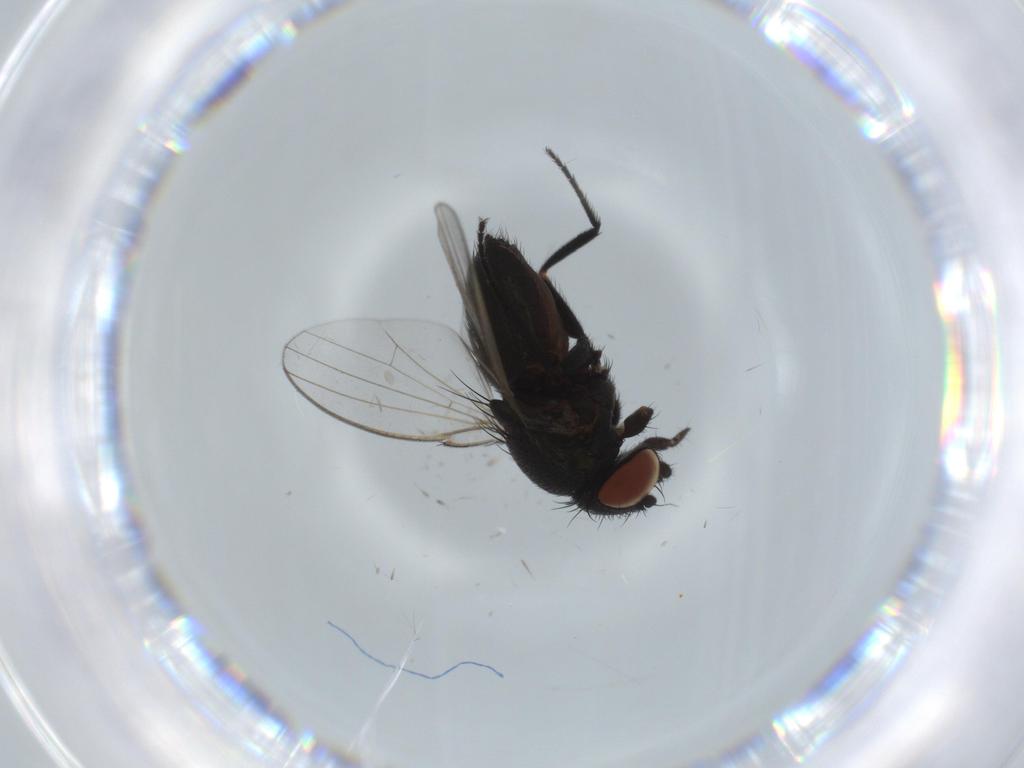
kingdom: Animalia
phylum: Arthropoda
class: Insecta
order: Diptera
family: Milichiidae
